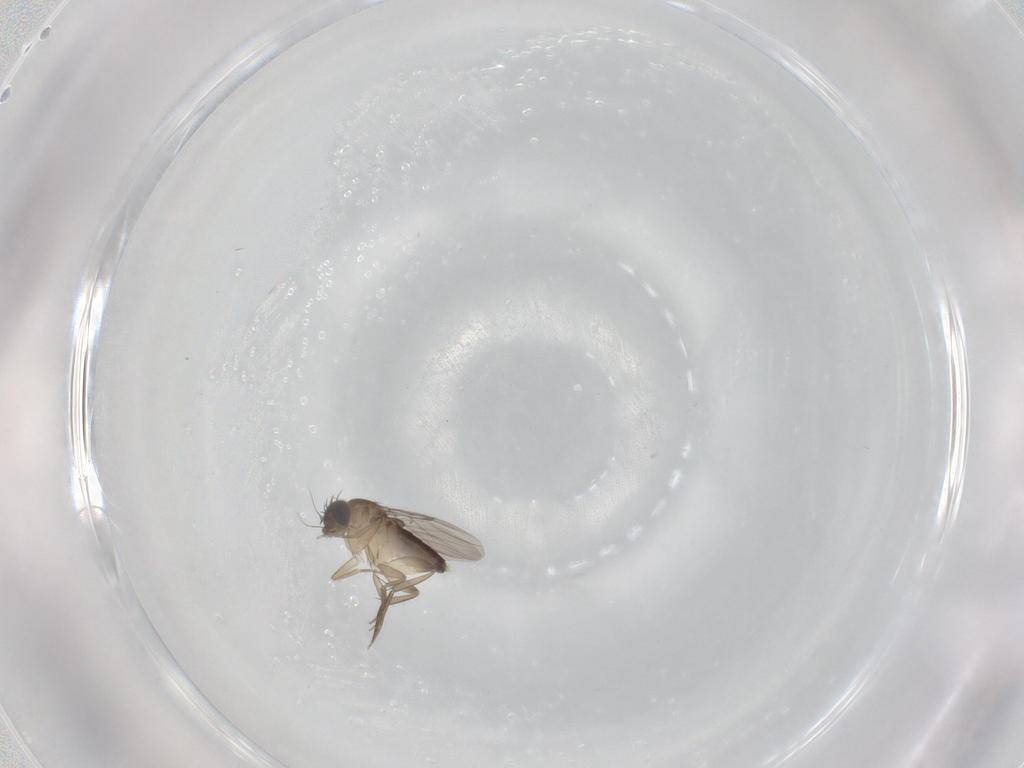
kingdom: Animalia
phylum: Arthropoda
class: Insecta
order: Diptera
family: Phoridae
